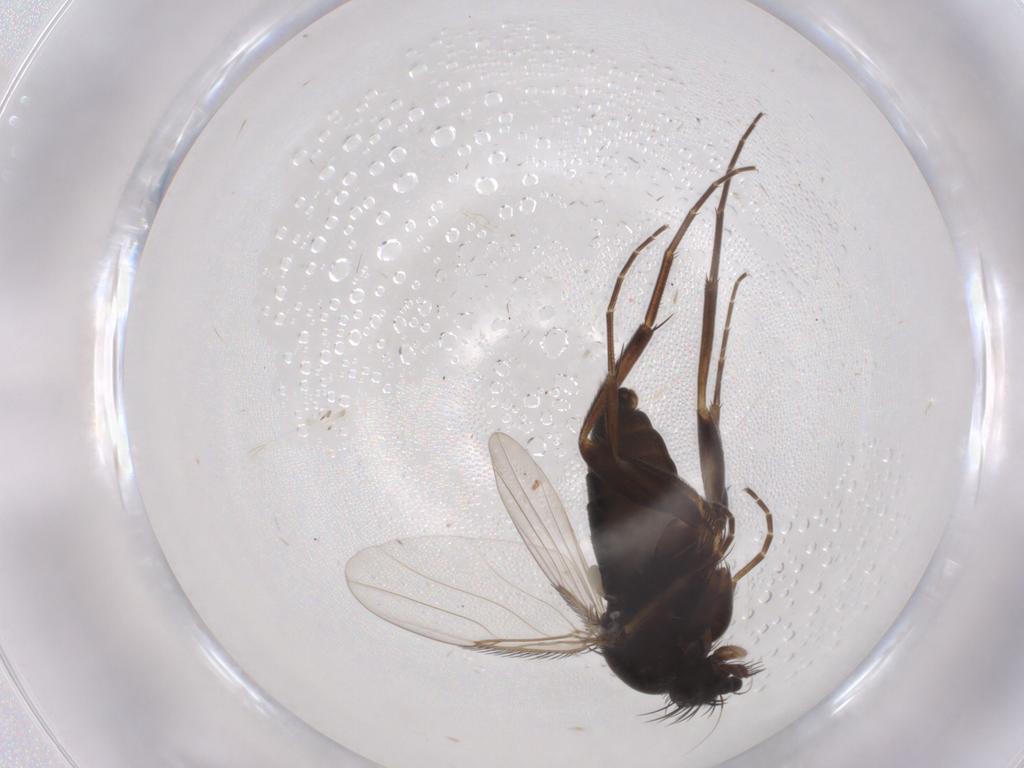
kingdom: Animalia
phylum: Arthropoda
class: Insecta
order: Diptera
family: Phoridae
